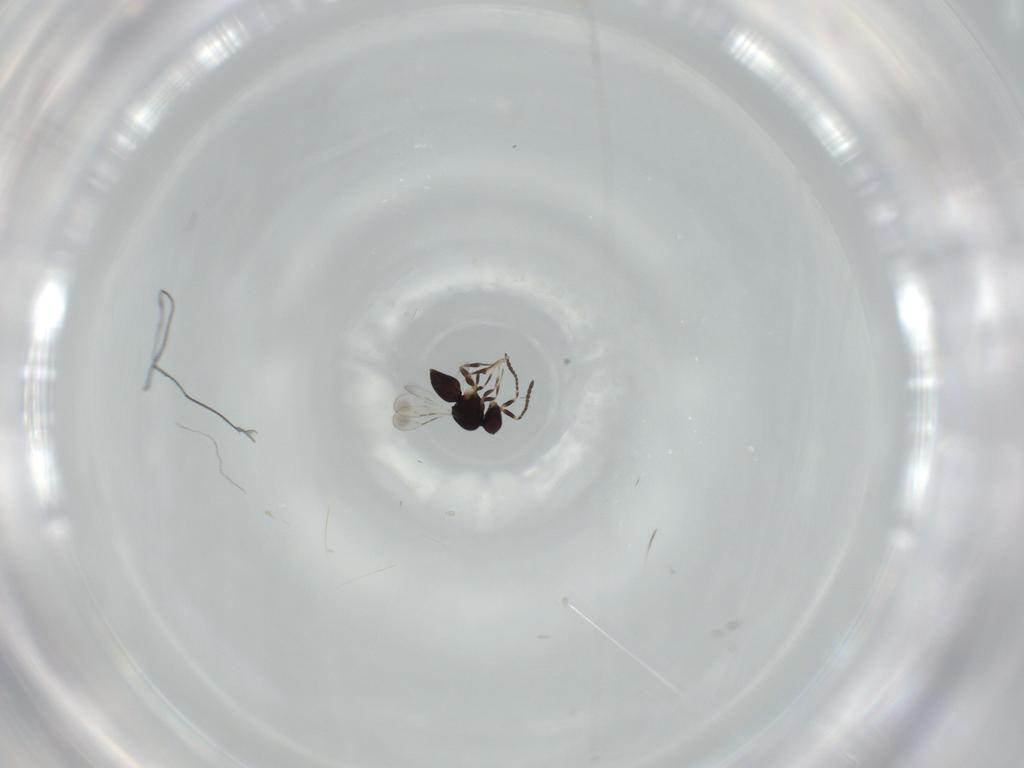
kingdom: Animalia
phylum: Arthropoda
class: Insecta
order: Hymenoptera
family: Ceraphronidae
